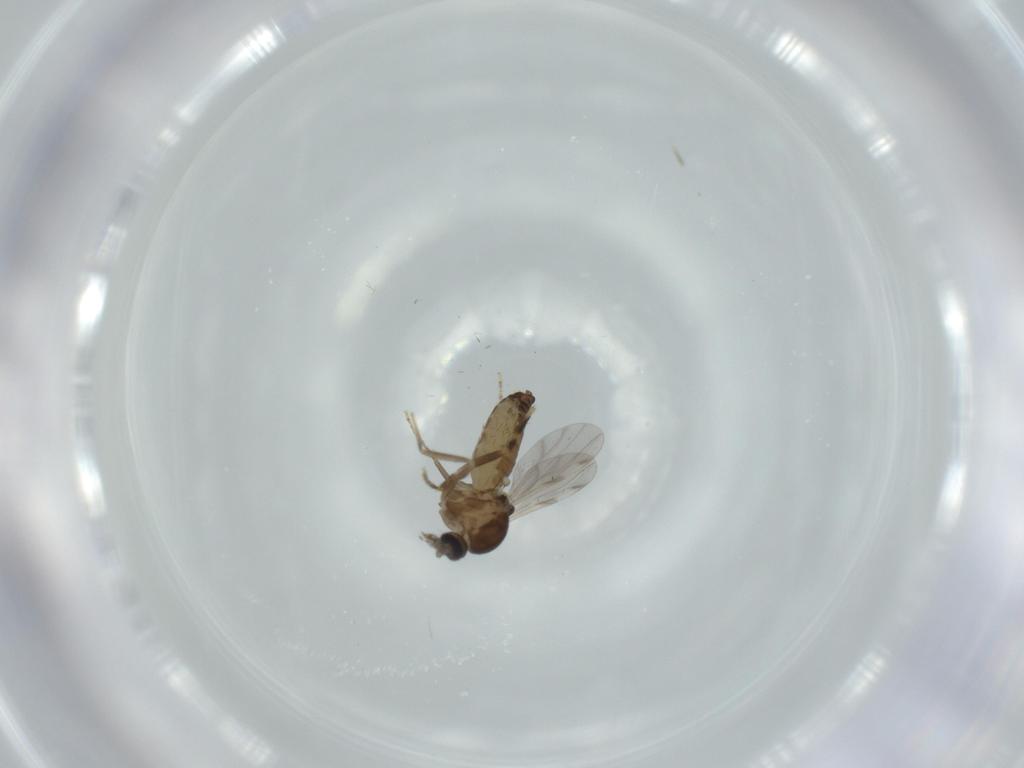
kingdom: Animalia
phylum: Arthropoda
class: Insecta
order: Diptera
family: Ceratopogonidae
